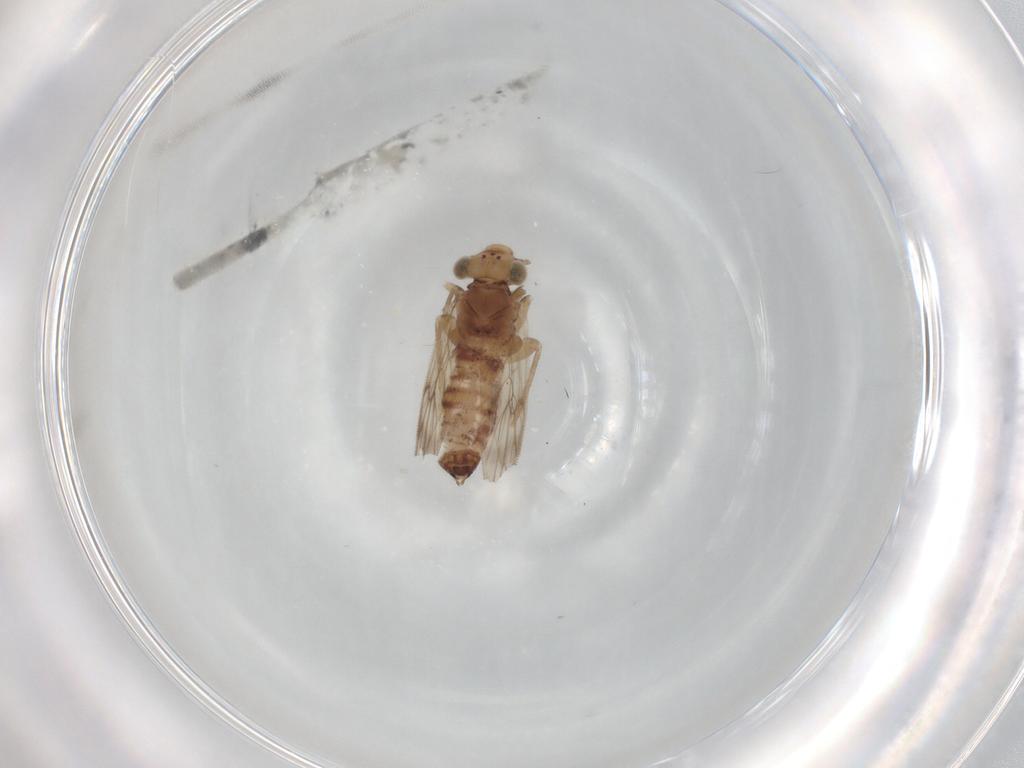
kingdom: Animalia
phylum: Arthropoda
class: Insecta
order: Psocodea
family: Lepidopsocidae
